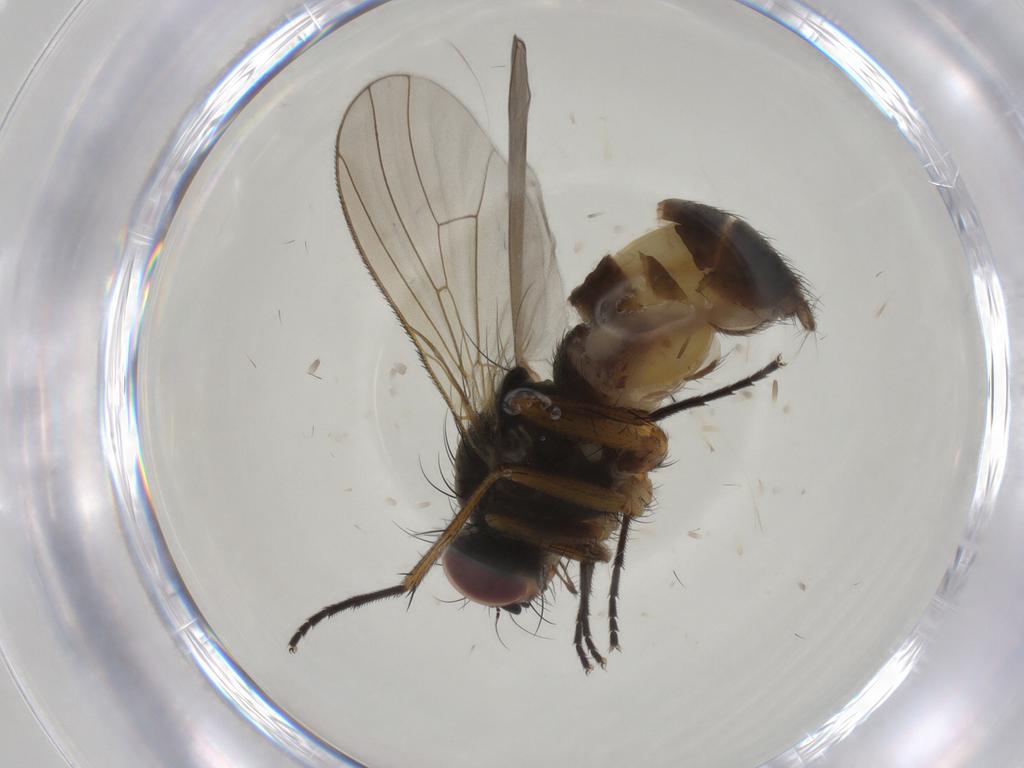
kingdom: Animalia
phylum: Arthropoda
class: Insecta
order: Diptera
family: Muscidae
